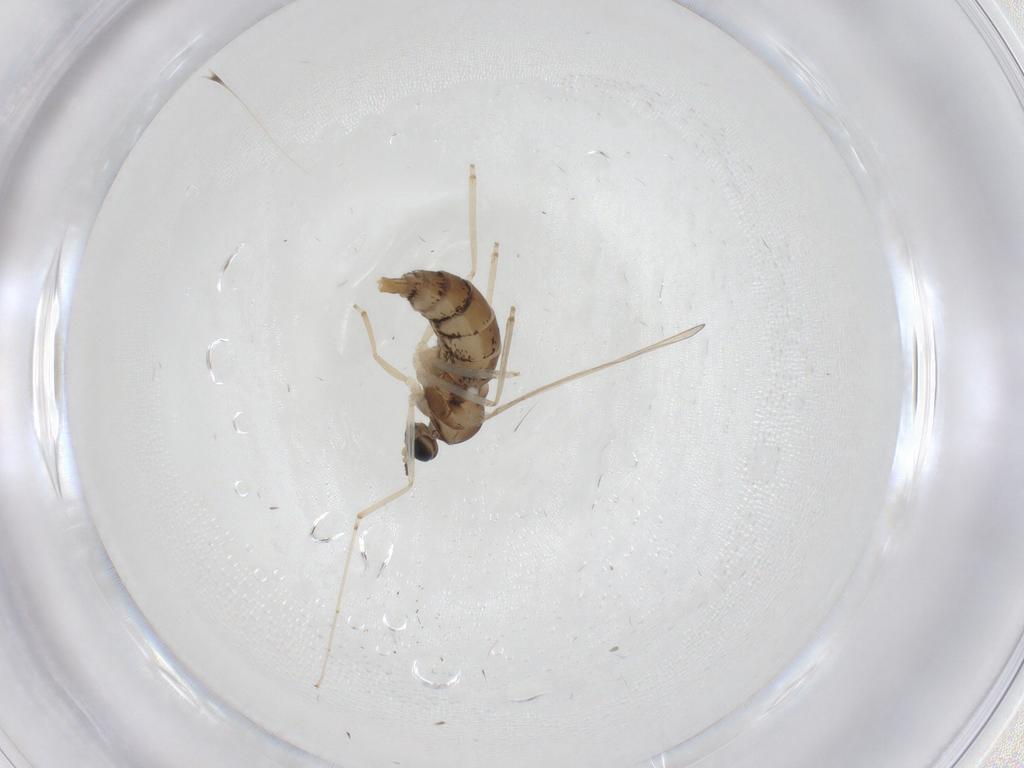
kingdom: Animalia
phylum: Arthropoda
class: Insecta
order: Diptera
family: Cecidomyiidae
